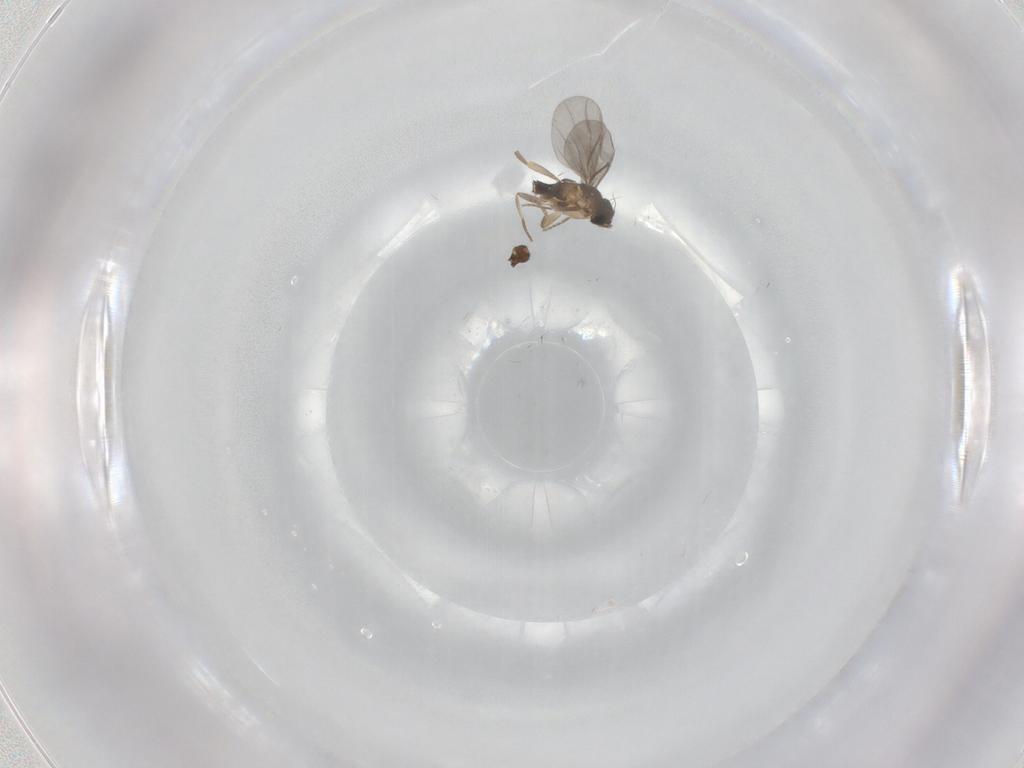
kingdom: Animalia
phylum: Arthropoda
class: Insecta
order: Diptera
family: Phoridae
